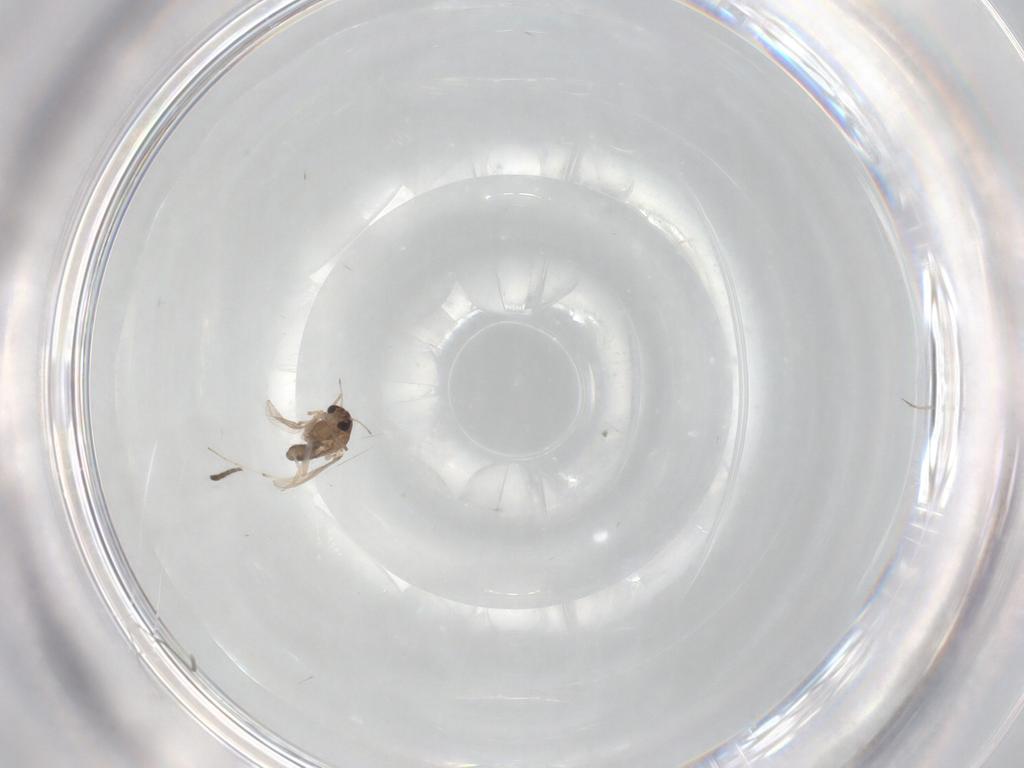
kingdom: Animalia
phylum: Arthropoda
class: Insecta
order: Diptera
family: Chironomidae
